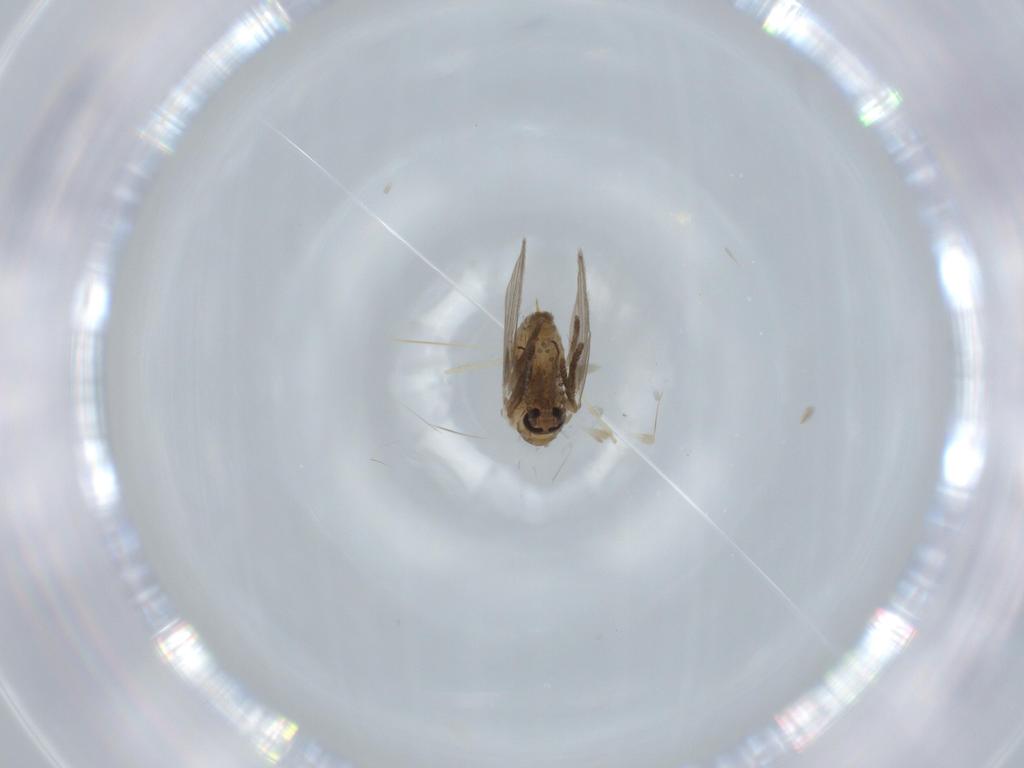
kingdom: Animalia
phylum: Arthropoda
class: Insecta
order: Diptera
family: Psychodidae
